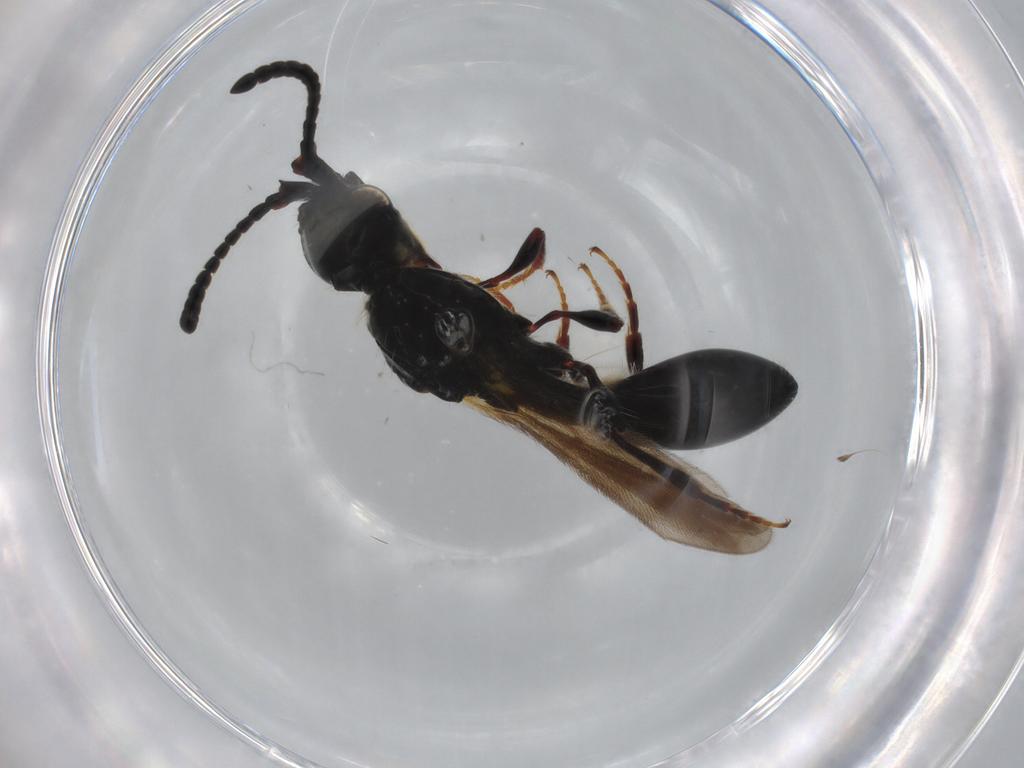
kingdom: Animalia
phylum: Arthropoda
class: Insecta
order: Hymenoptera
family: Diapriidae
